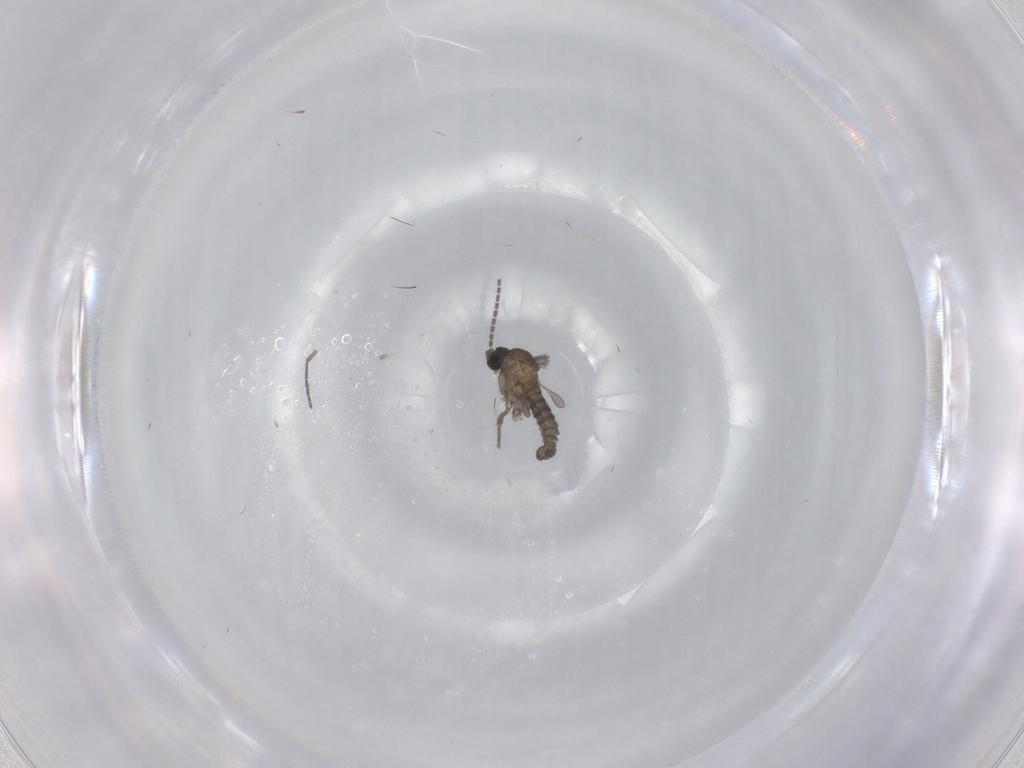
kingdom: Animalia
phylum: Arthropoda
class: Insecta
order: Diptera
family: Sciaridae
